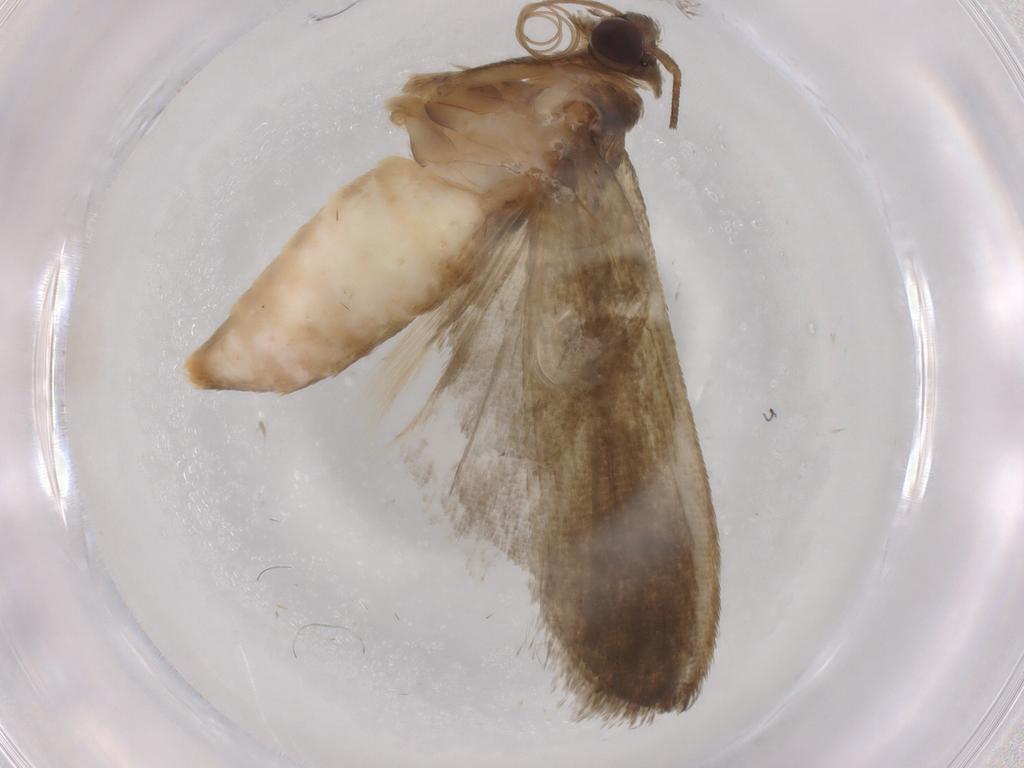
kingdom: Animalia
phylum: Arthropoda
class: Insecta
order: Lepidoptera
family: Noctuidae
